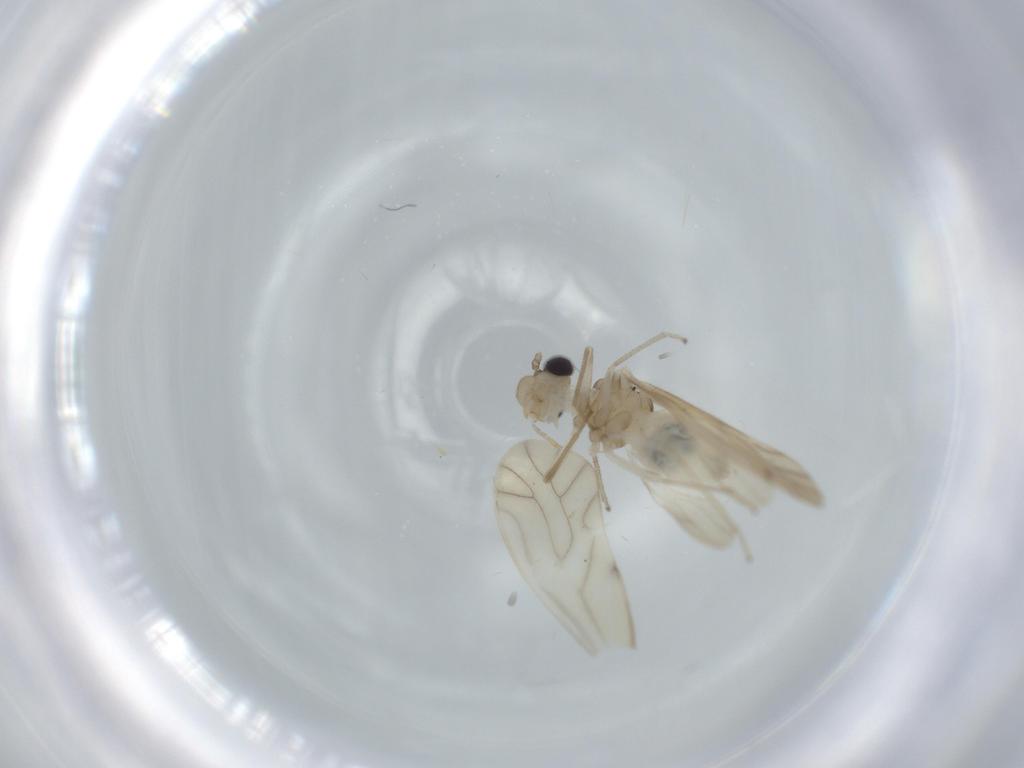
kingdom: Animalia
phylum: Arthropoda
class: Insecta
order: Psocodea
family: Caeciliusidae
